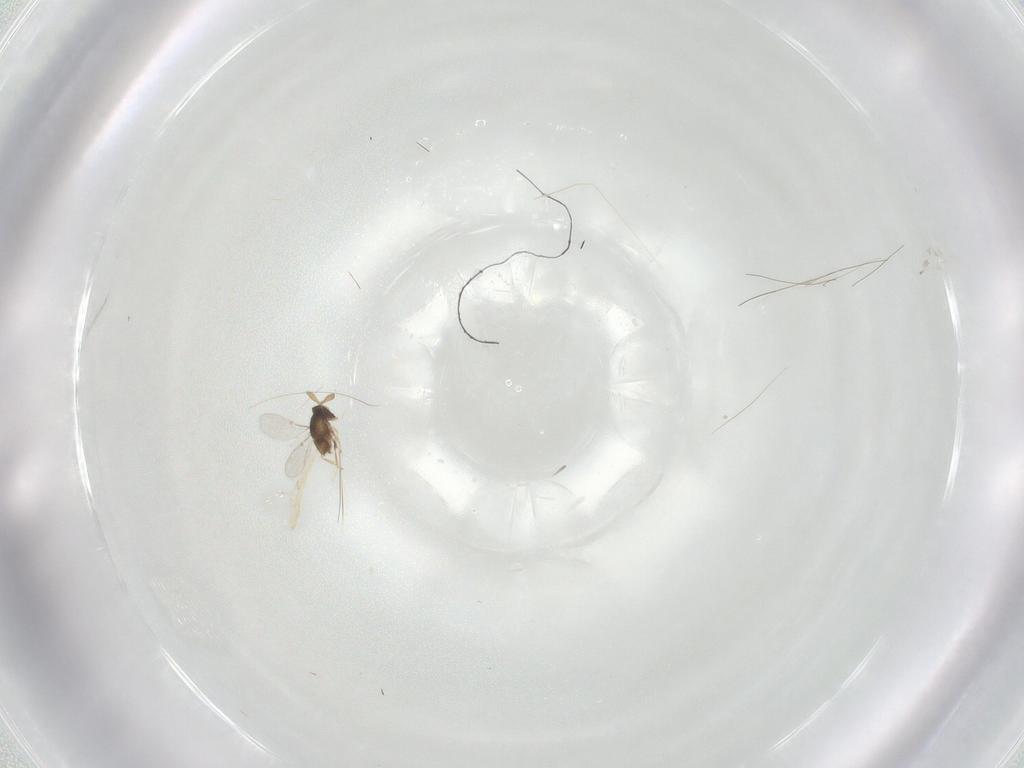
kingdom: Animalia
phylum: Arthropoda
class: Insecta
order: Hymenoptera
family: Encyrtidae
